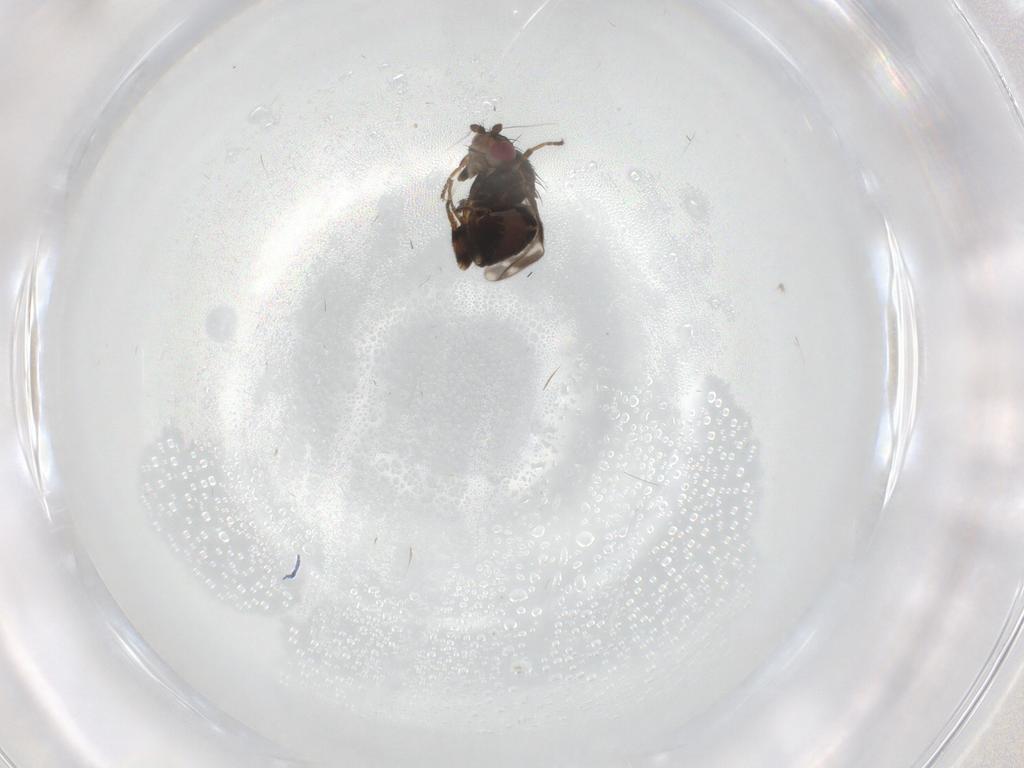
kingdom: Animalia
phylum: Arthropoda
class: Insecta
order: Diptera
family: Sphaeroceridae
